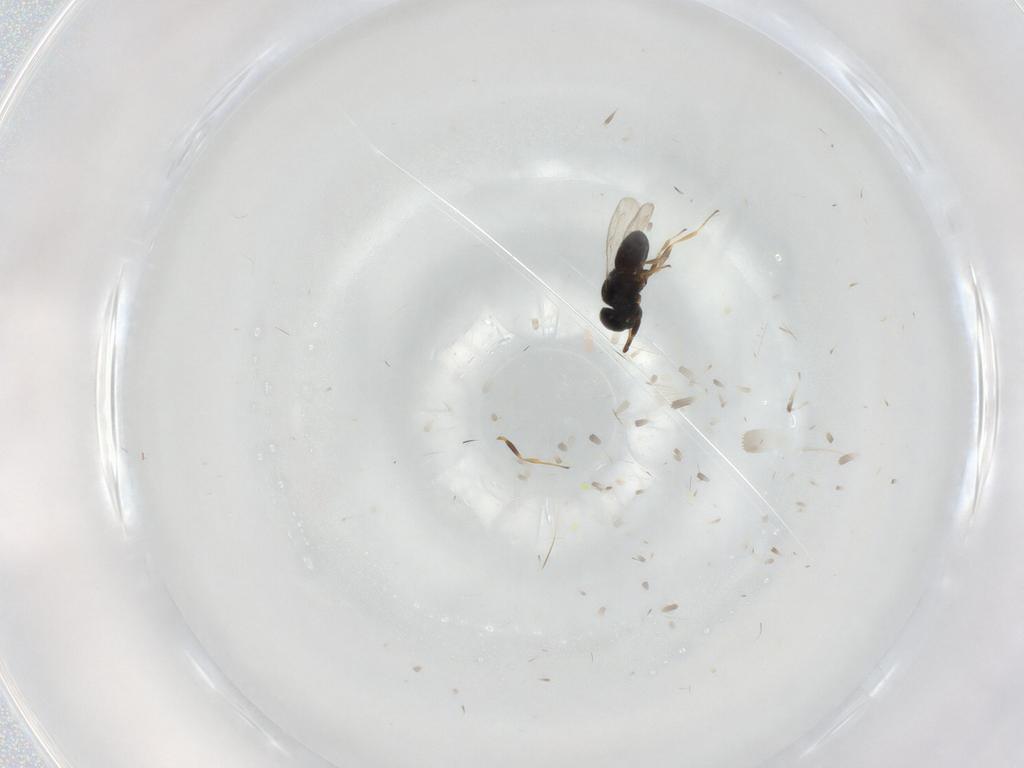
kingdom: Animalia
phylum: Arthropoda
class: Insecta
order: Hymenoptera
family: Scelionidae
